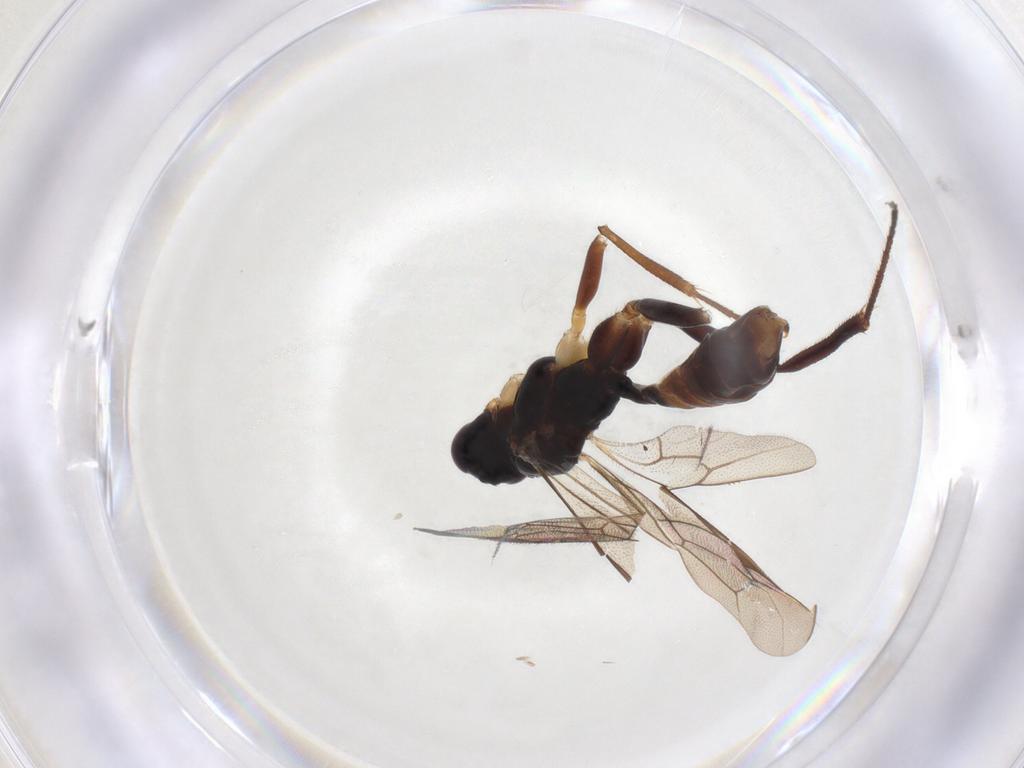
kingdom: Animalia
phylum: Arthropoda
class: Insecta
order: Hymenoptera
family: Ichneumonidae
